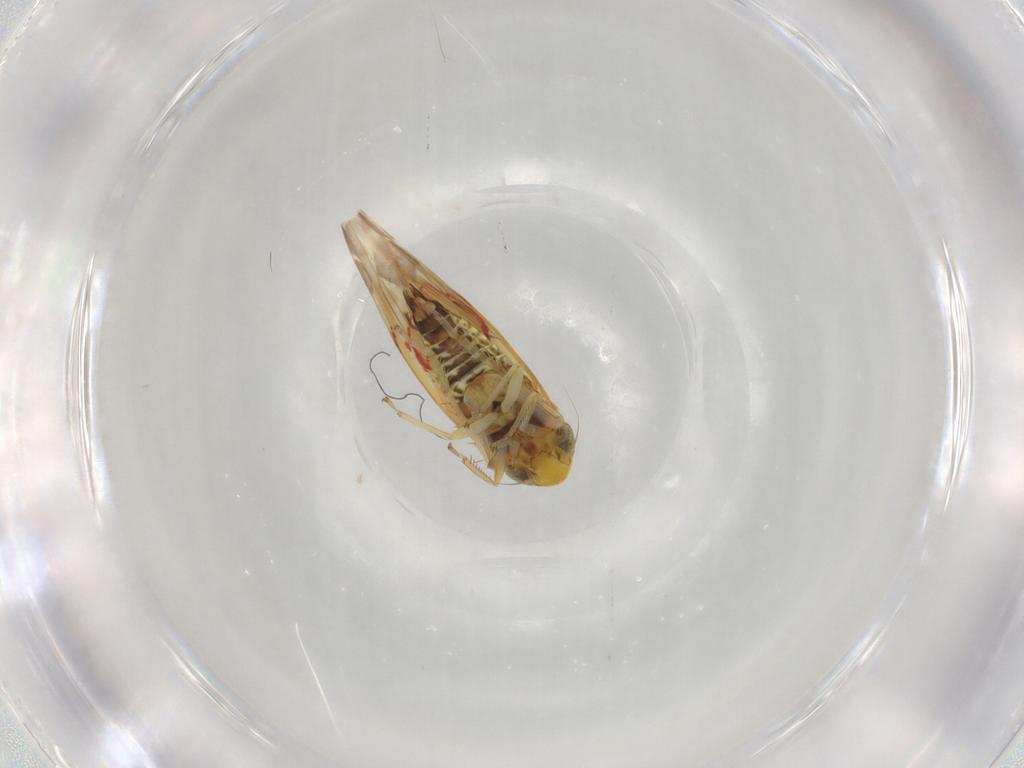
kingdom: Animalia
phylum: Arthropoda
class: Insecta
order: Hemiptera
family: Cicadellidae
